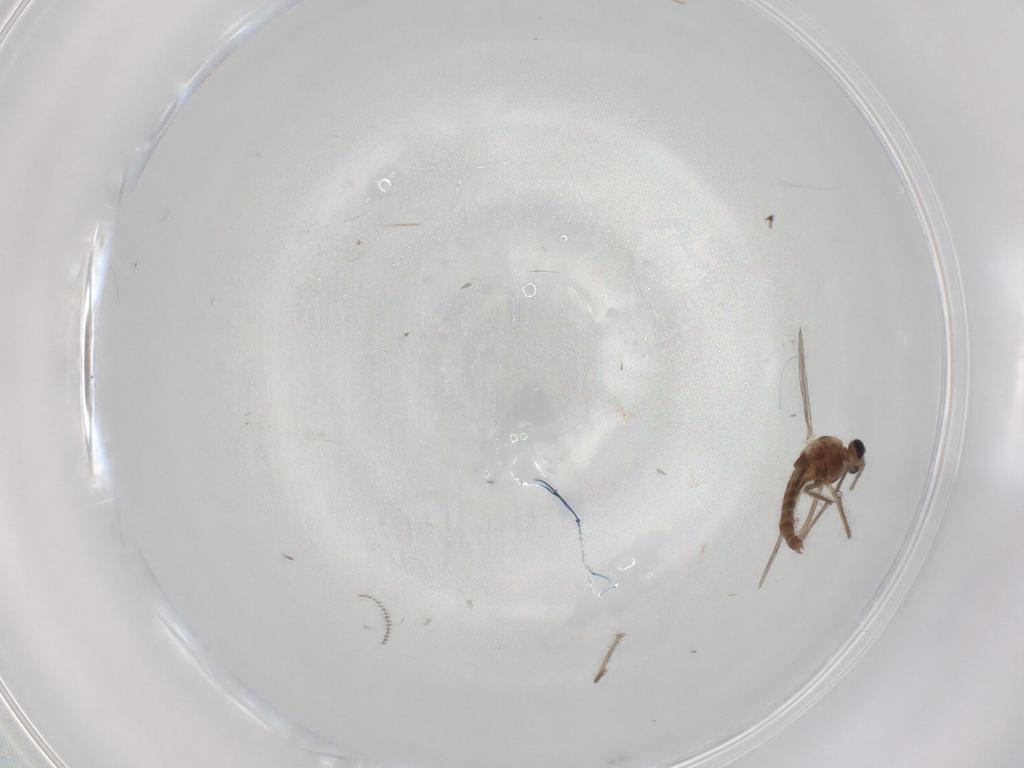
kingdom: Animalia
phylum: Arthropoda
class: Insecta
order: Diptera
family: Chironomidae
